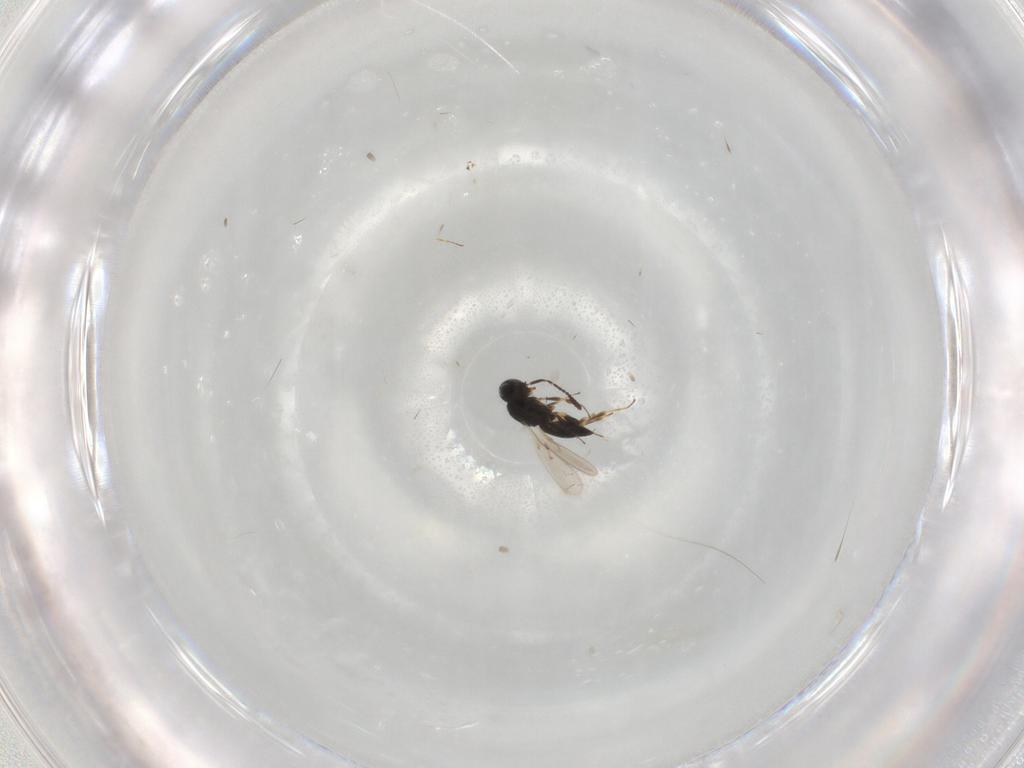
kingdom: Animalia
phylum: Arthropoda
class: Insecta
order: Hymenoptera
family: Scelionidae
